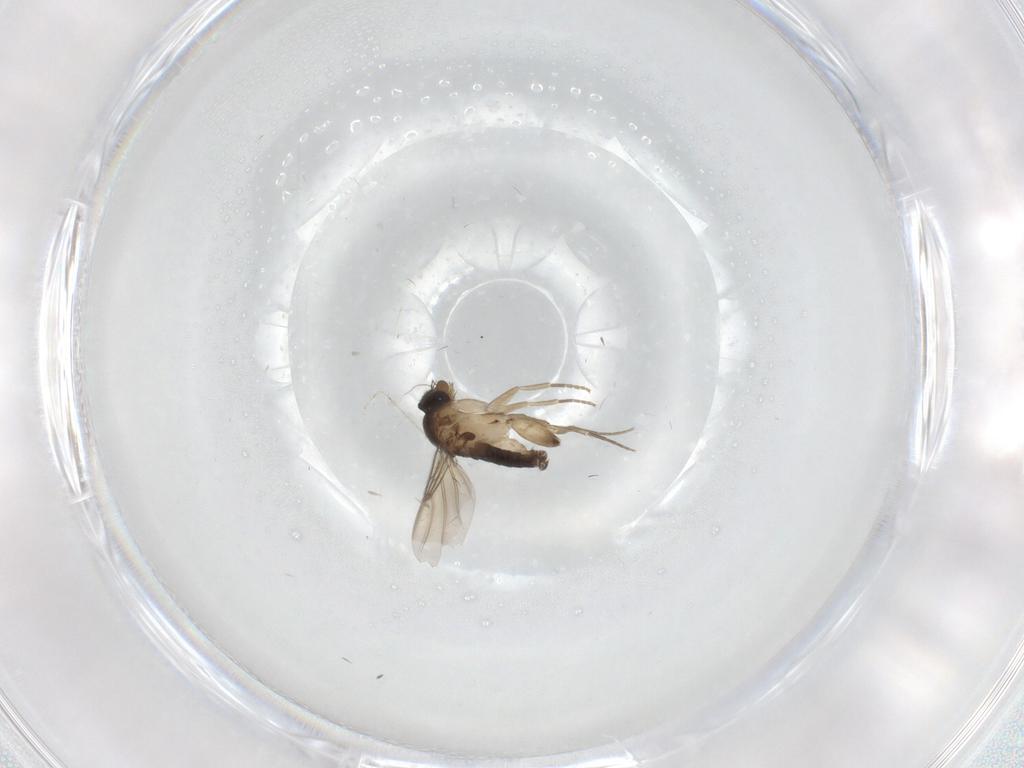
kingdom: Animalia
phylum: Arthropoda
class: Insecta
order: Diptera
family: Phoridae
